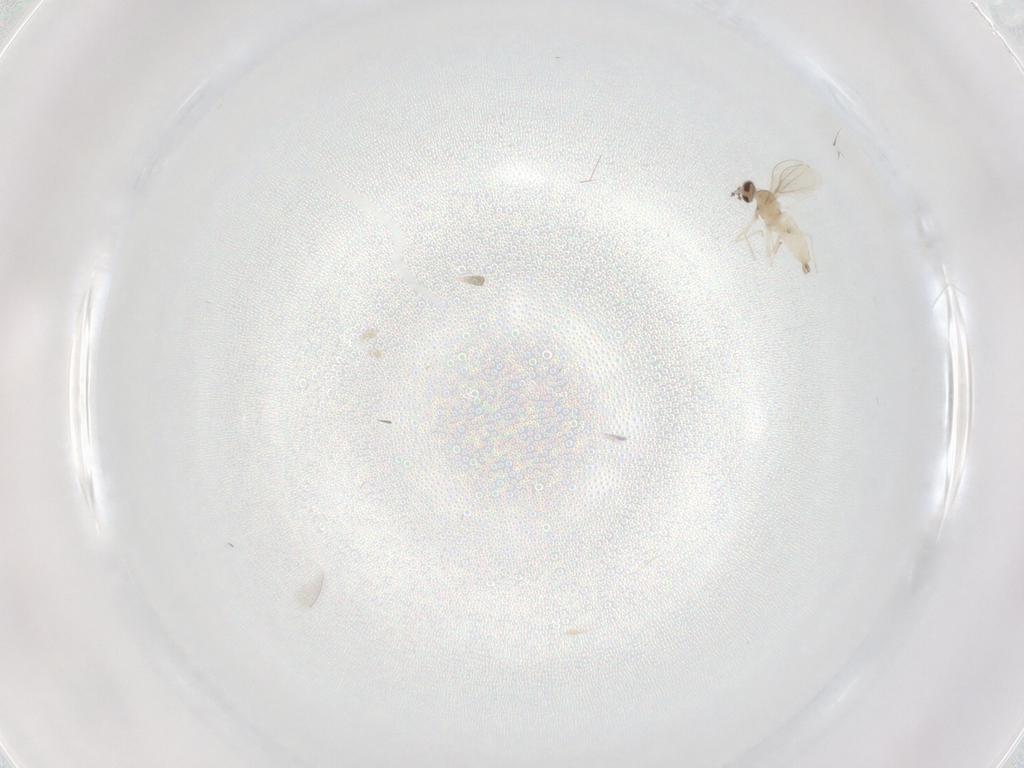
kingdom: Animalia
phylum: Arthropoda
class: Insecta
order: Diptera
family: Cecidomyiidae
